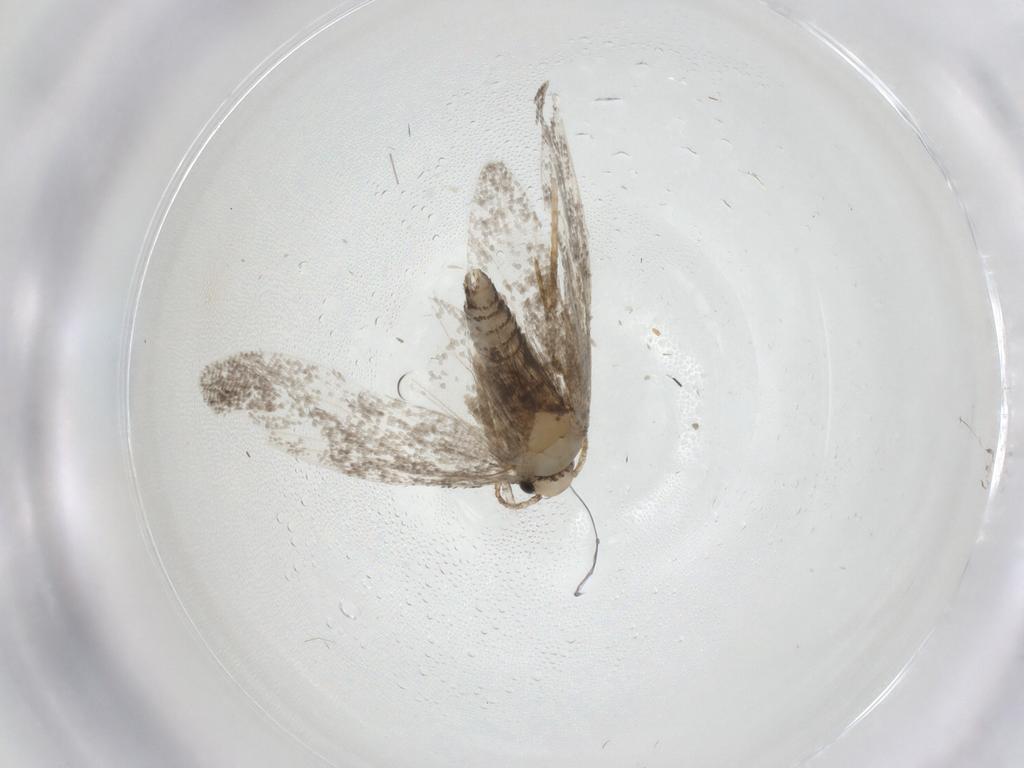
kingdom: Animalia
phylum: Arthropoda
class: Insecta
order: Lepidoptera
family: Psychidae
